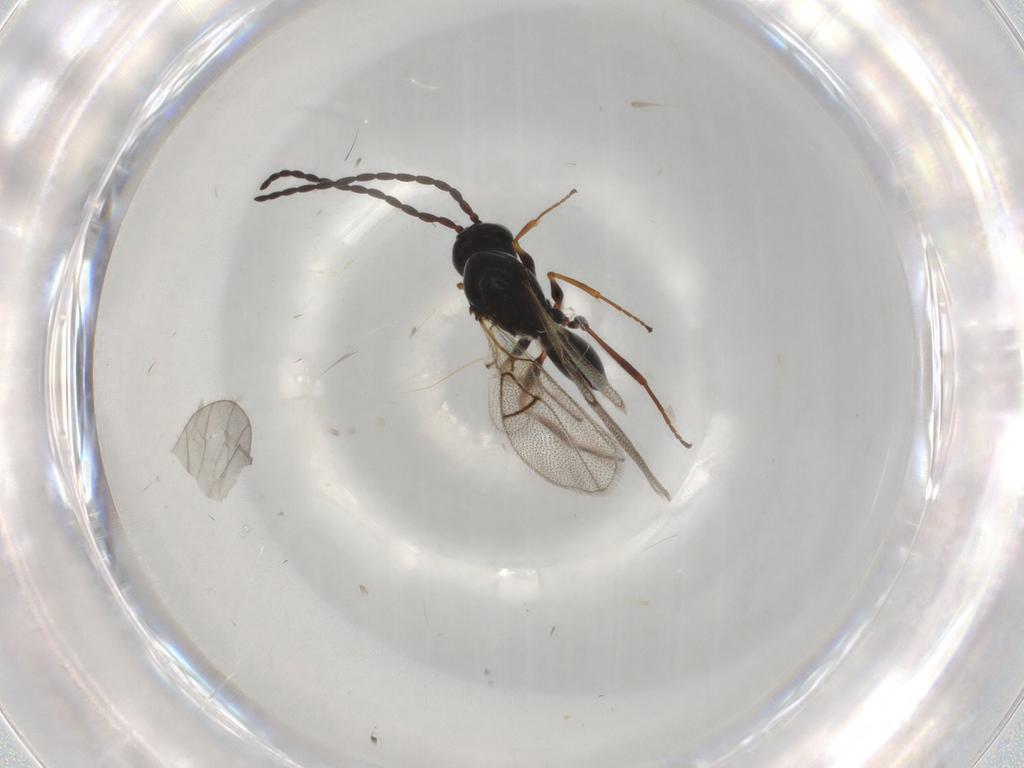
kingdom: Animalia
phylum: Arthropoda
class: Insecta
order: Hymenoptera
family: Figitidae
